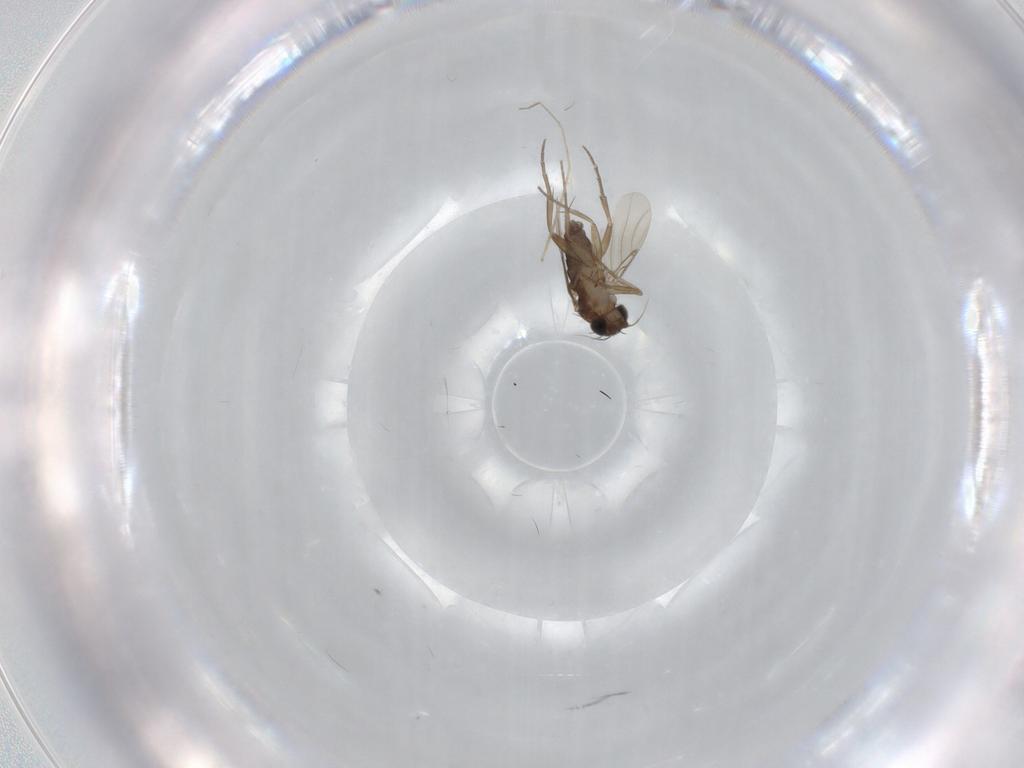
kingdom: Animalia
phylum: Arthropoda
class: Insecta
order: Diptera
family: Phoridae
